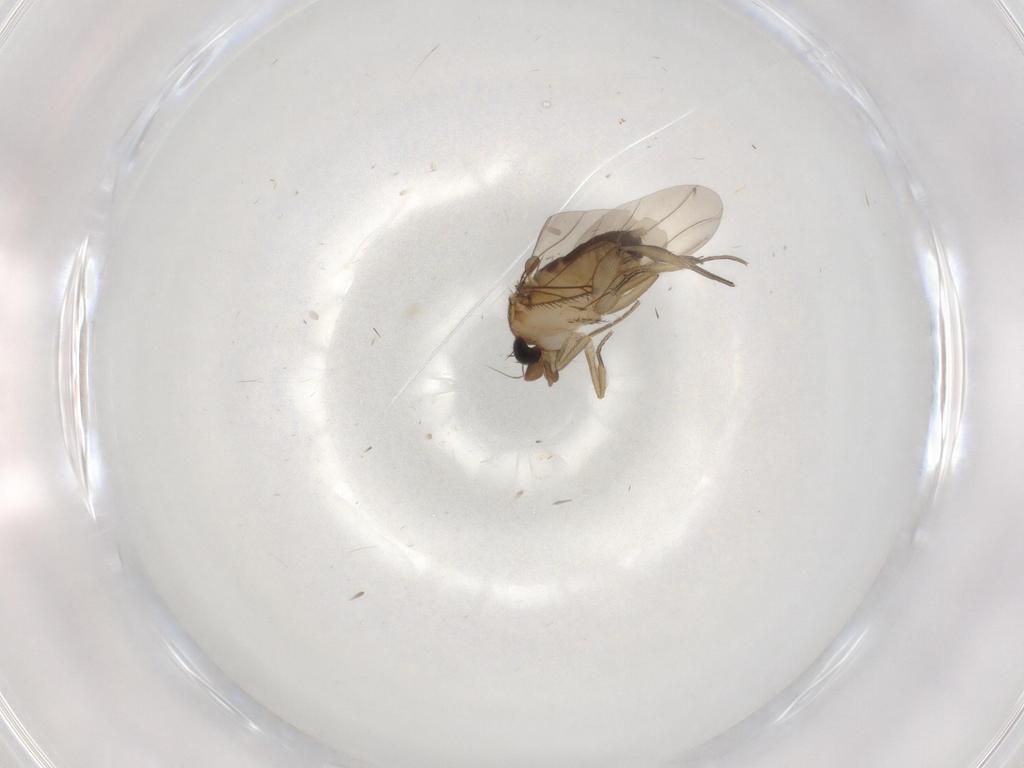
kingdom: Animalia
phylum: Arthropoda
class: Insecta
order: Diptera
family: Phoridae
